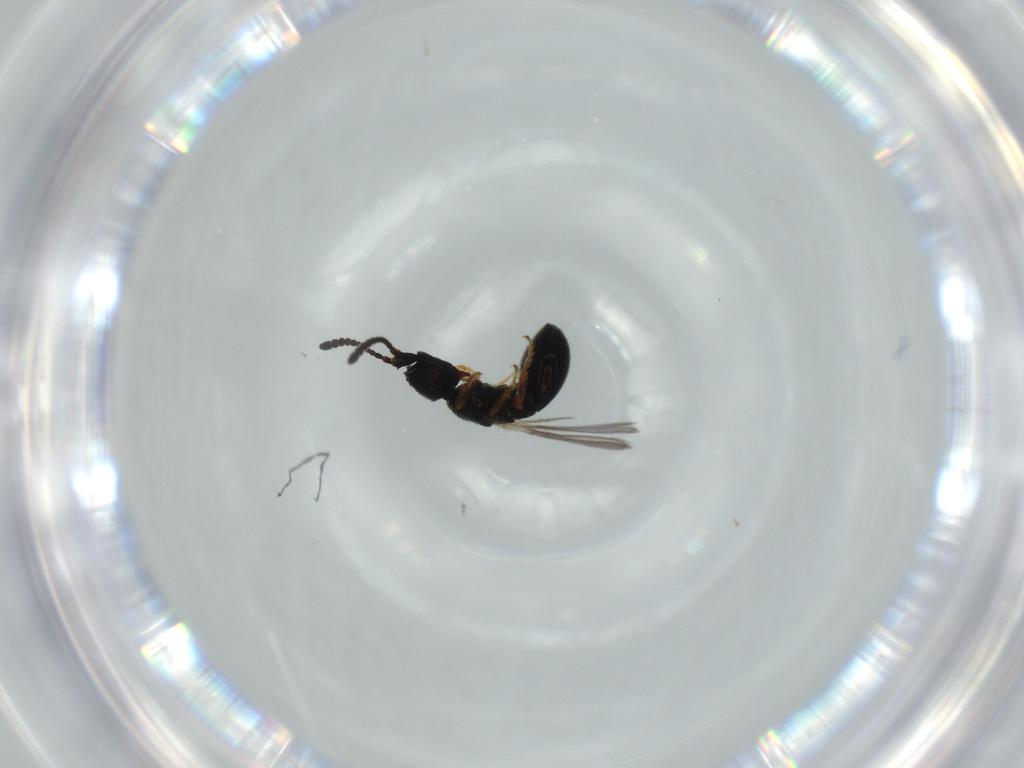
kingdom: Animalia
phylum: Arthropoda
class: Insecta
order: Hymenoptera
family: Diapriidae
